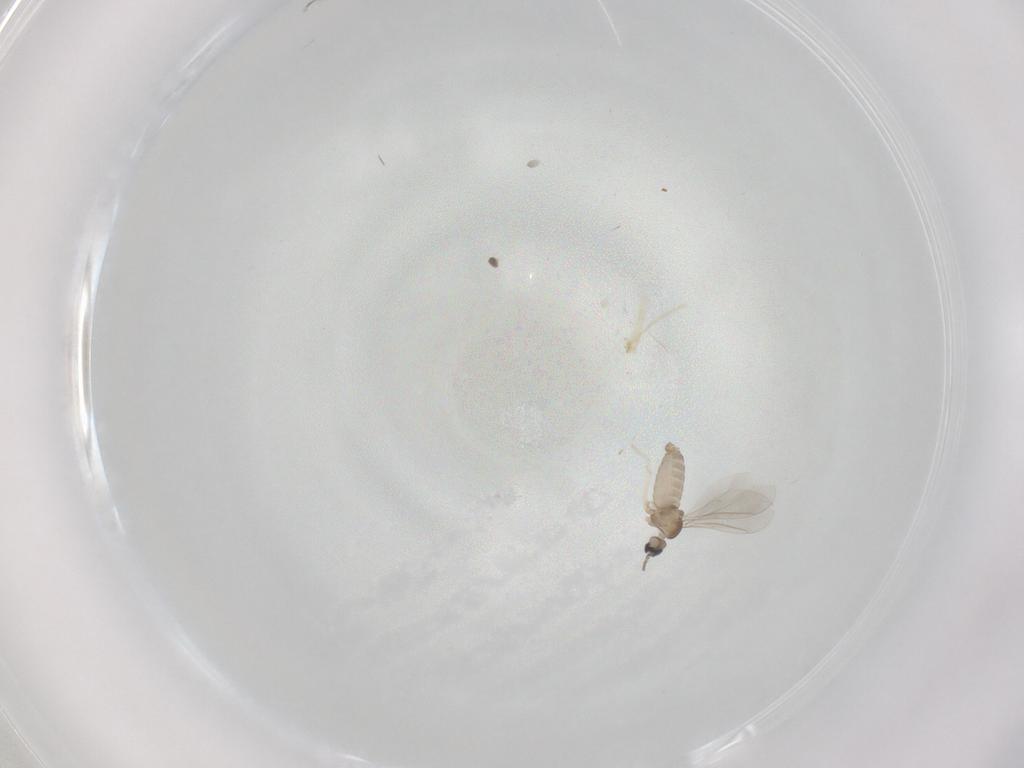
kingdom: Animalia
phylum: Arthropoda
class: Insecta
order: Diptera
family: Cecidomyiidae
